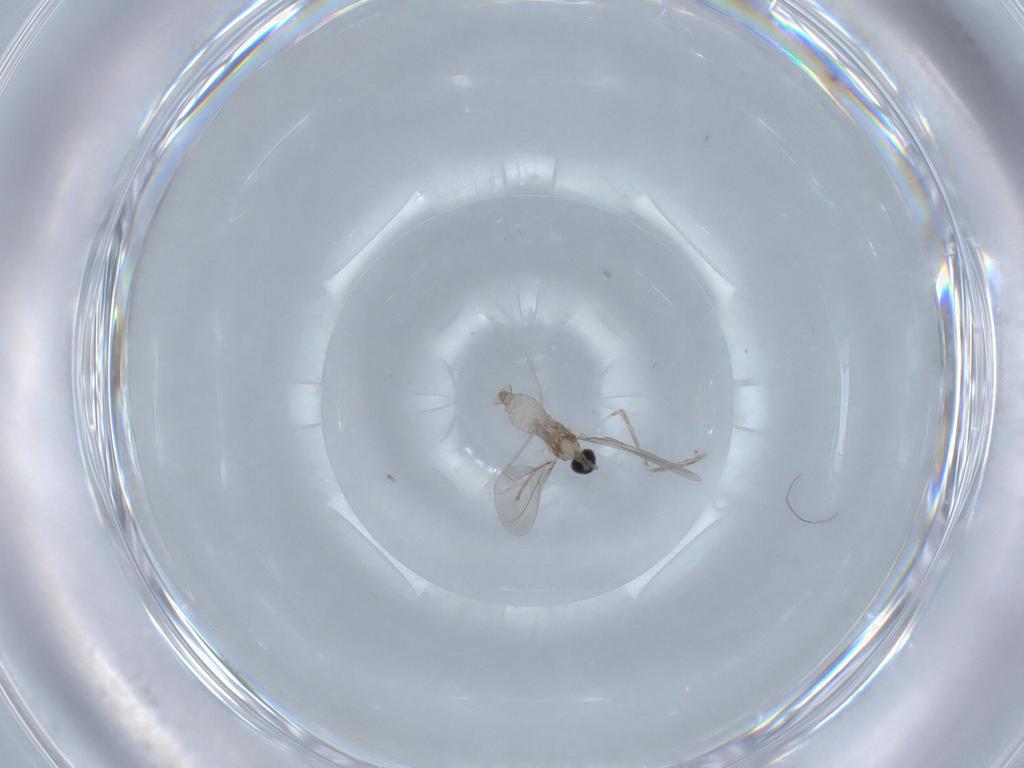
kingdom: Animalia
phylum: Arthropoda
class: Insecta
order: Diptera
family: Cecidomyiidae
